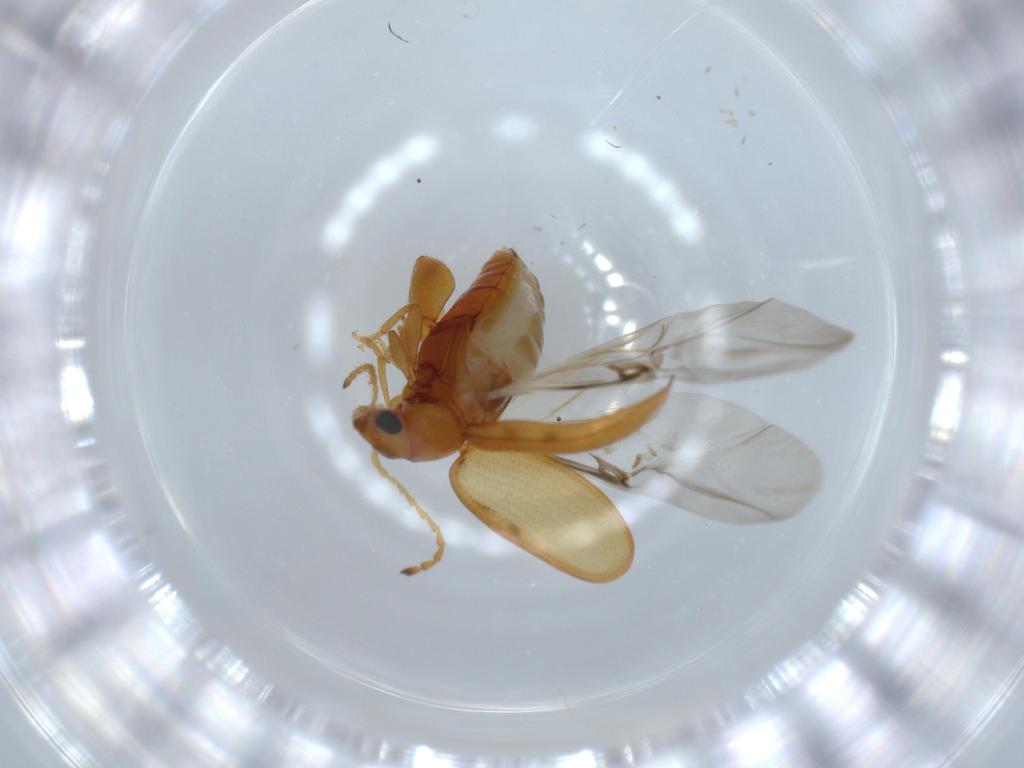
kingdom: Animalia
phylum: Arthropoda
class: Insecta
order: Coleoptera
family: Chrysomelidae
